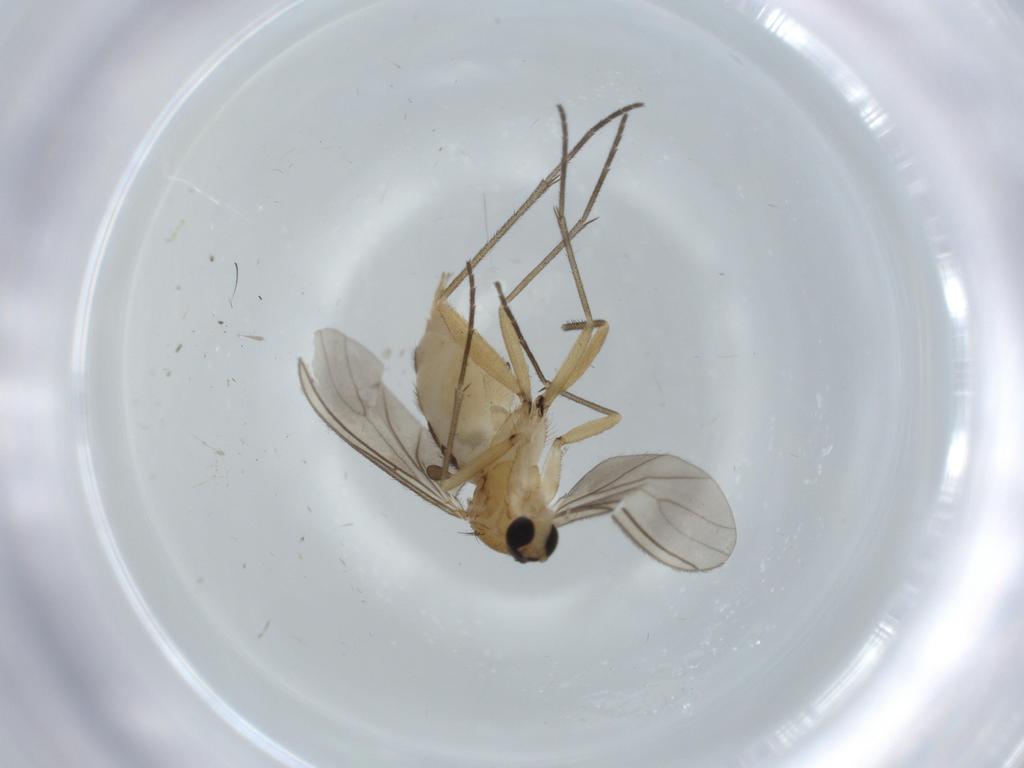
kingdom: Animalia
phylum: Arthropoda
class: Insecta
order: Diptera
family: Sciaridae
